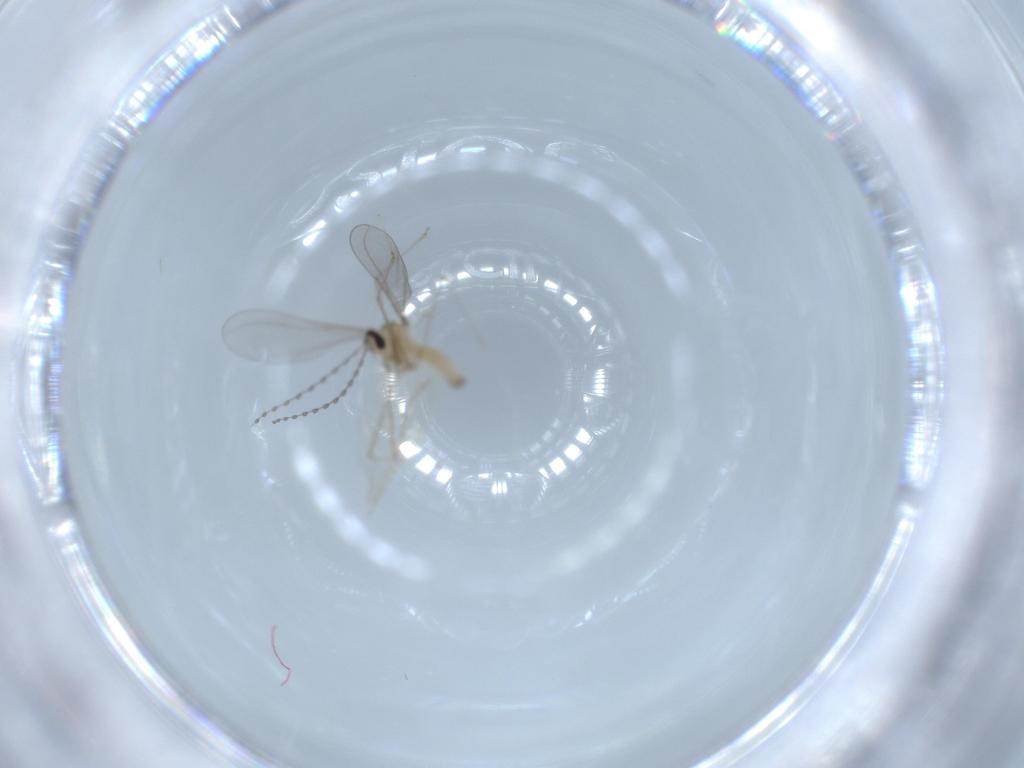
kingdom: Animalia
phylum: Arthropoda
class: Insecta
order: Diptera
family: Cecidomyiidae
